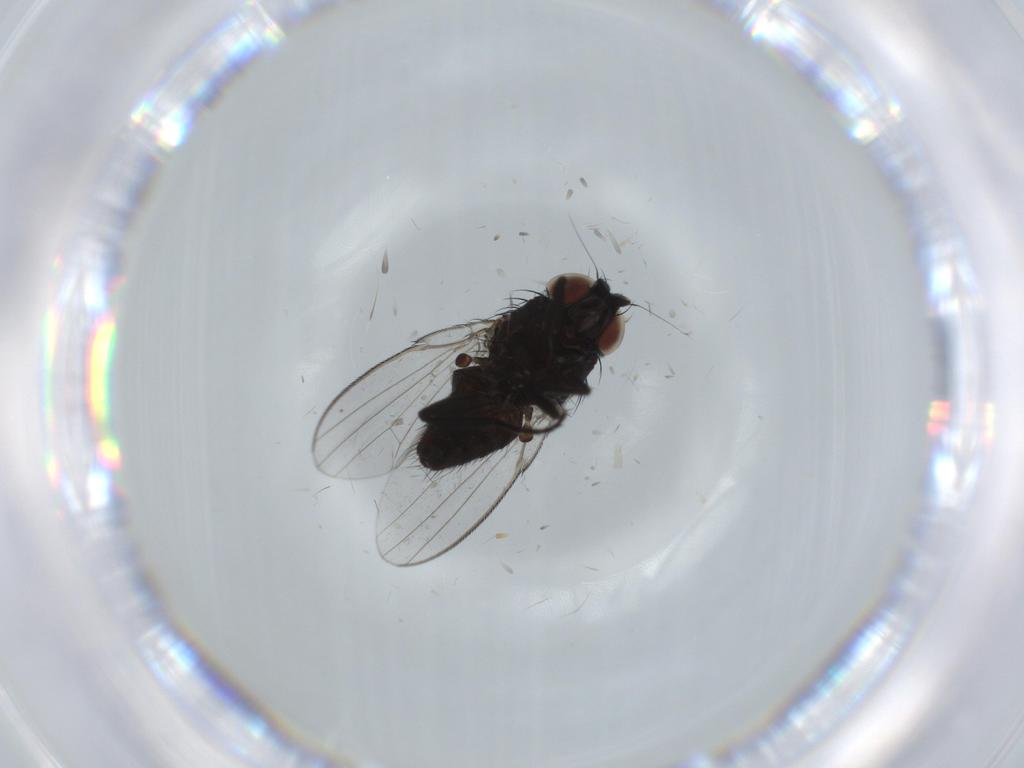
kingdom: Animalia
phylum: Arthropoda
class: Insecta
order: Diptera
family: Milichiidae
